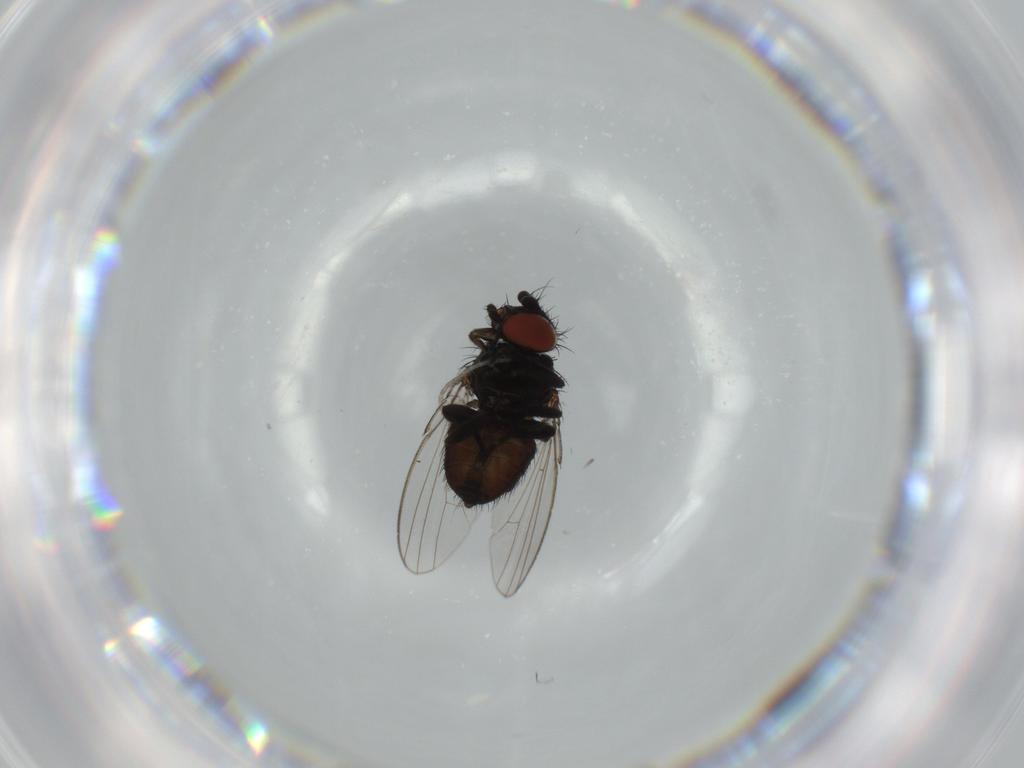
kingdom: Animalia
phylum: Arthropoda
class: Insecta
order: Diptera
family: Milichiidae
